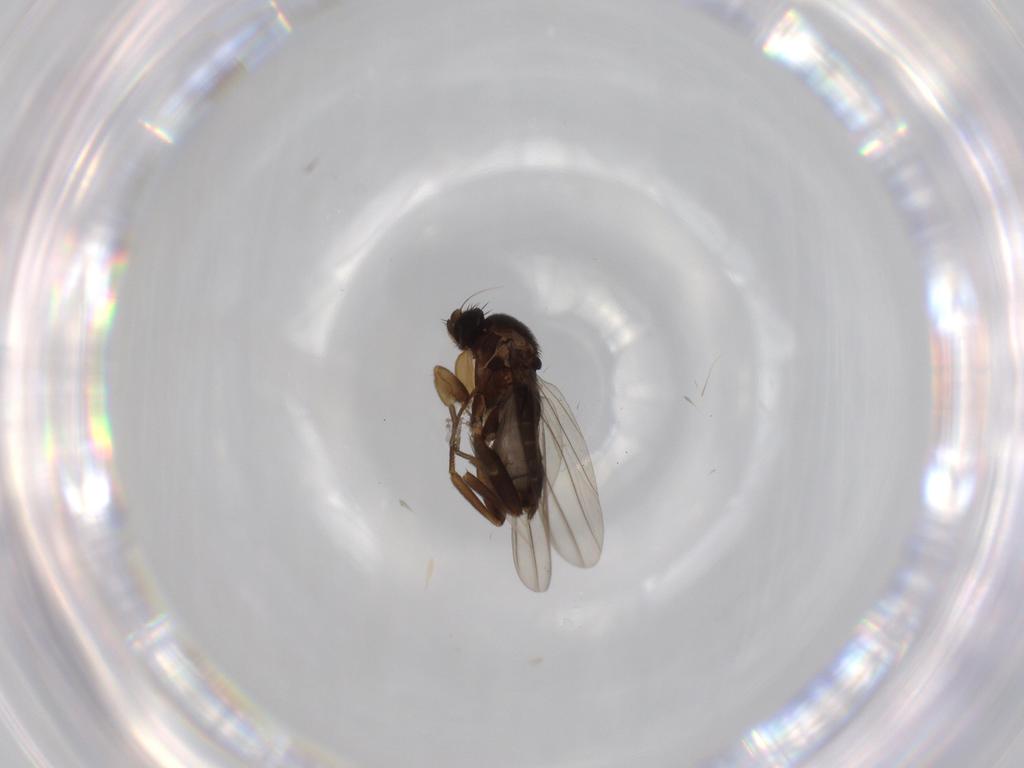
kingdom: Animalia
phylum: Arthropoda
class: Insecta
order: Diptera
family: Phoridae
